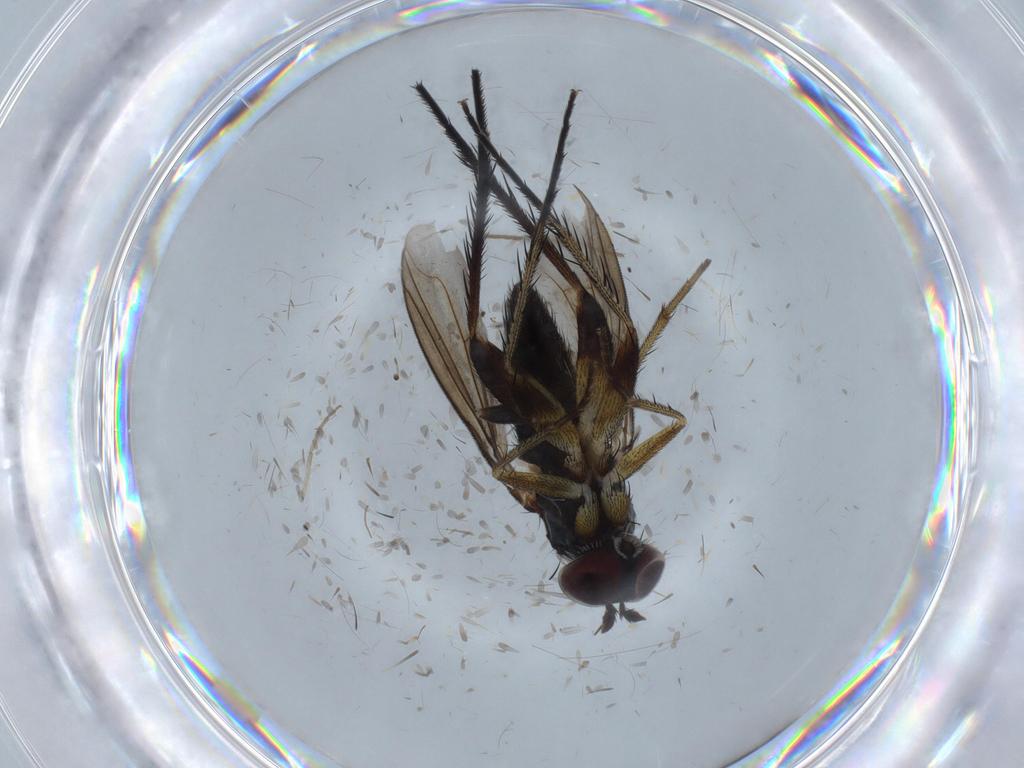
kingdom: Animalia
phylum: Arthropoda
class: Insecta
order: Diptera
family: Dolichopodidae
